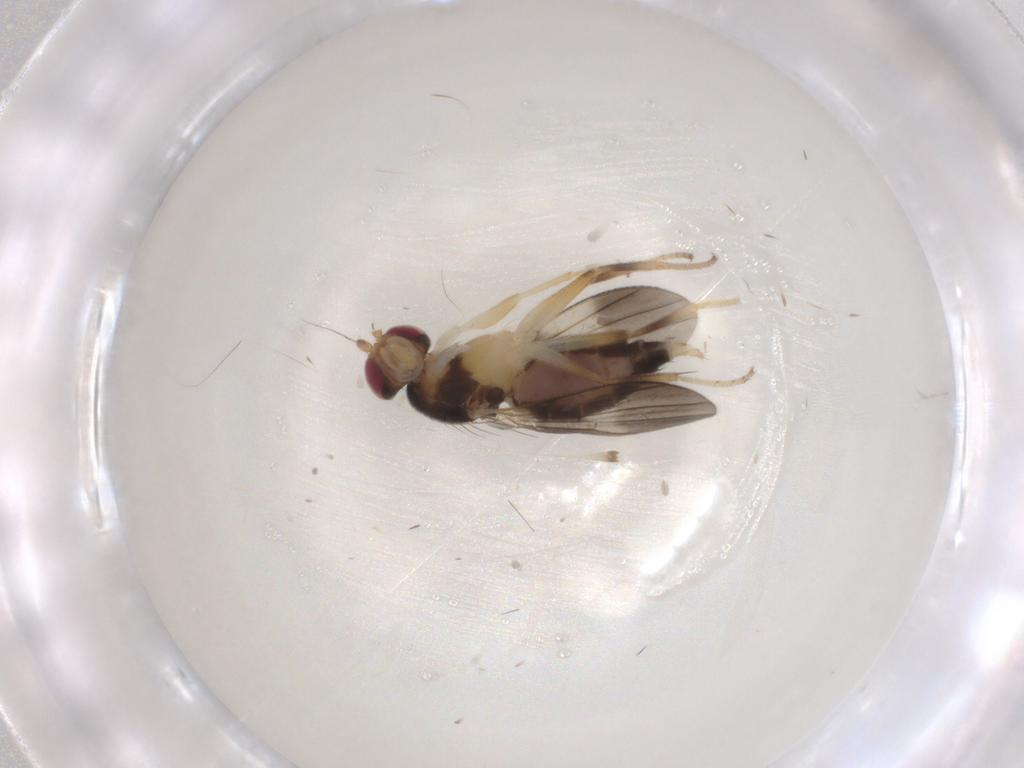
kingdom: Animalia
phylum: Arthropoda
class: Insecta
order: Diptera
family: Clusiidae
